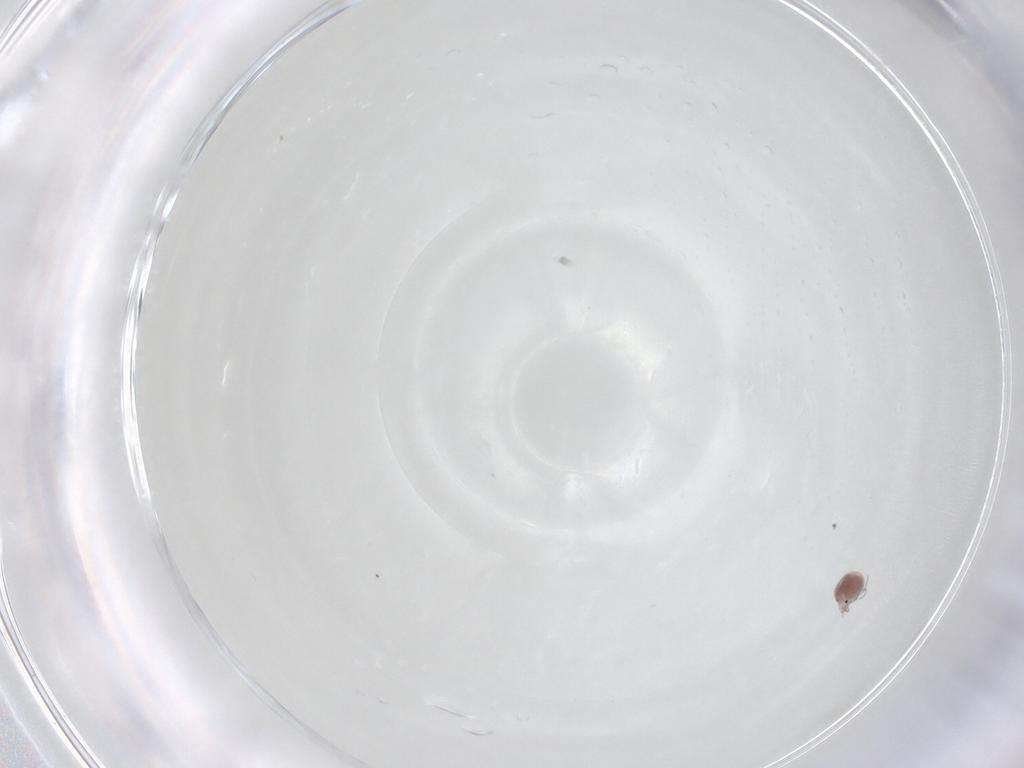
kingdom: Animalia
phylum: Arthropoda
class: Arachnida
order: Trombidiformes
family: Pionidae
